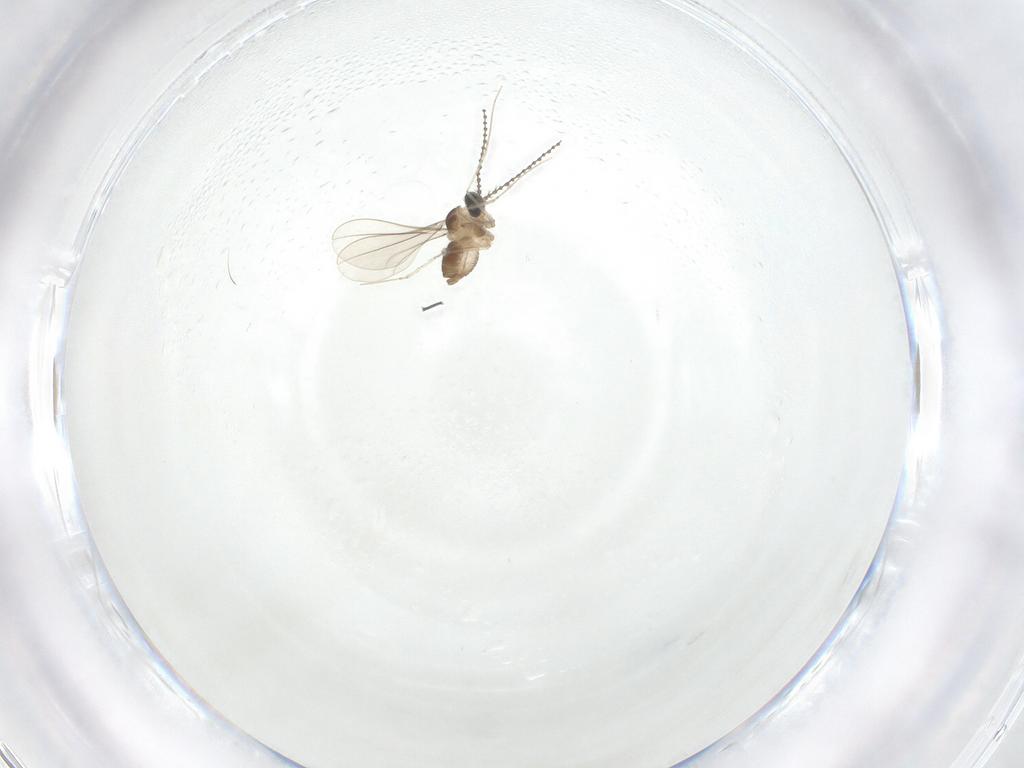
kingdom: Animalia
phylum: Arthropoda
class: Insecta
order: Diptera
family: Cecidomyiidae
